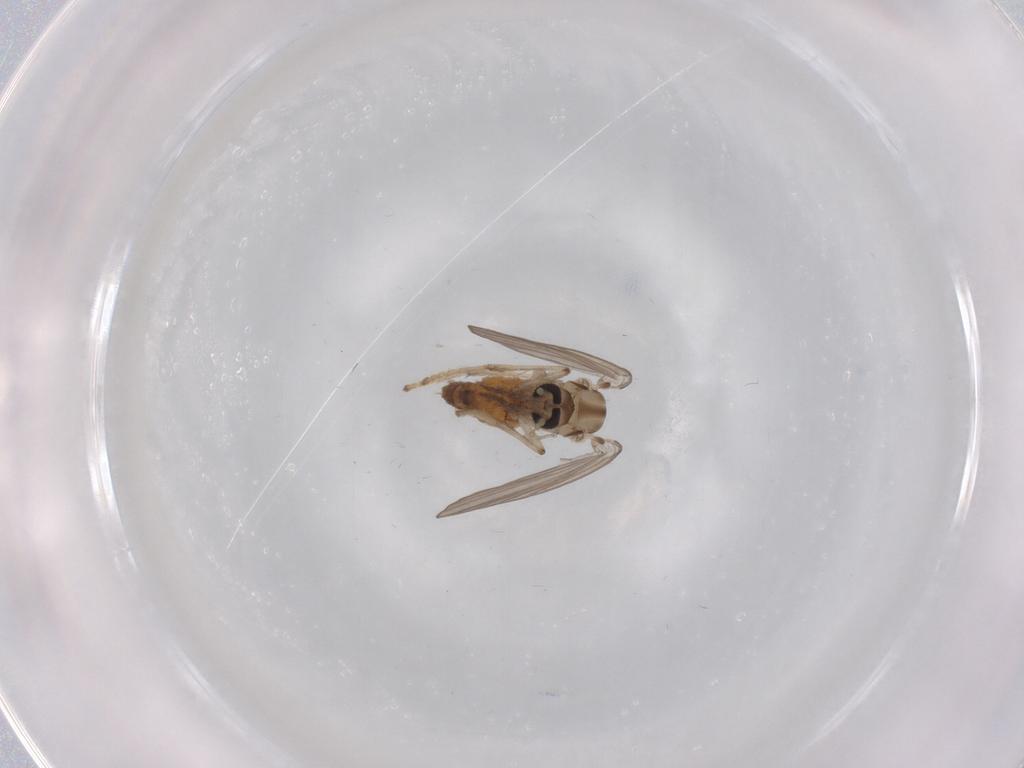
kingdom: Animalia
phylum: Arthropoda
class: Insecta
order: Diptera
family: Psychodidae
